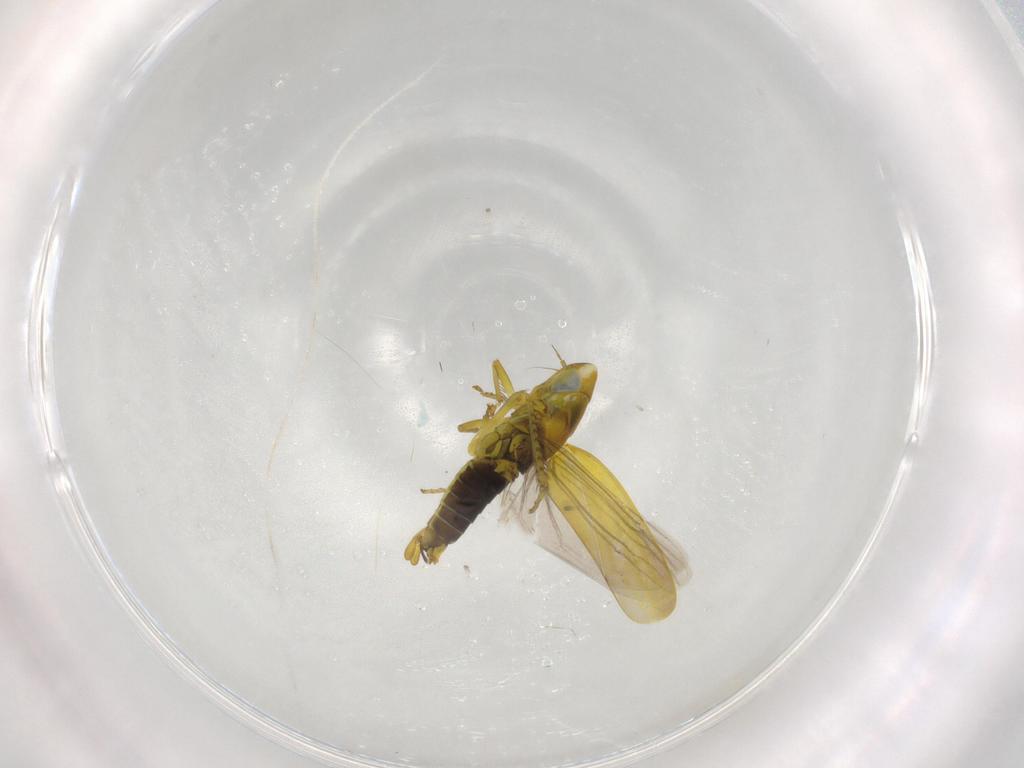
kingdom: Animalia
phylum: Arthropoda
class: Insecta
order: Hemiptera
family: Cicadellidae
